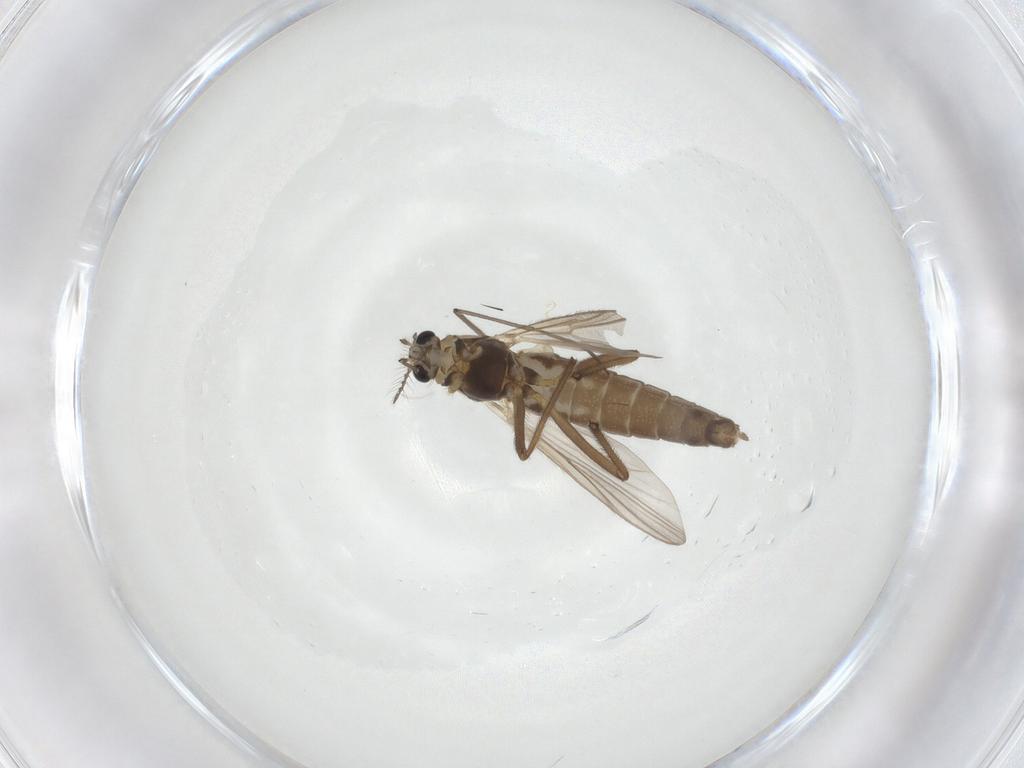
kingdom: Animalia
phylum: Arthropoda
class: Insecta
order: Diptera
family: Chironomidae
